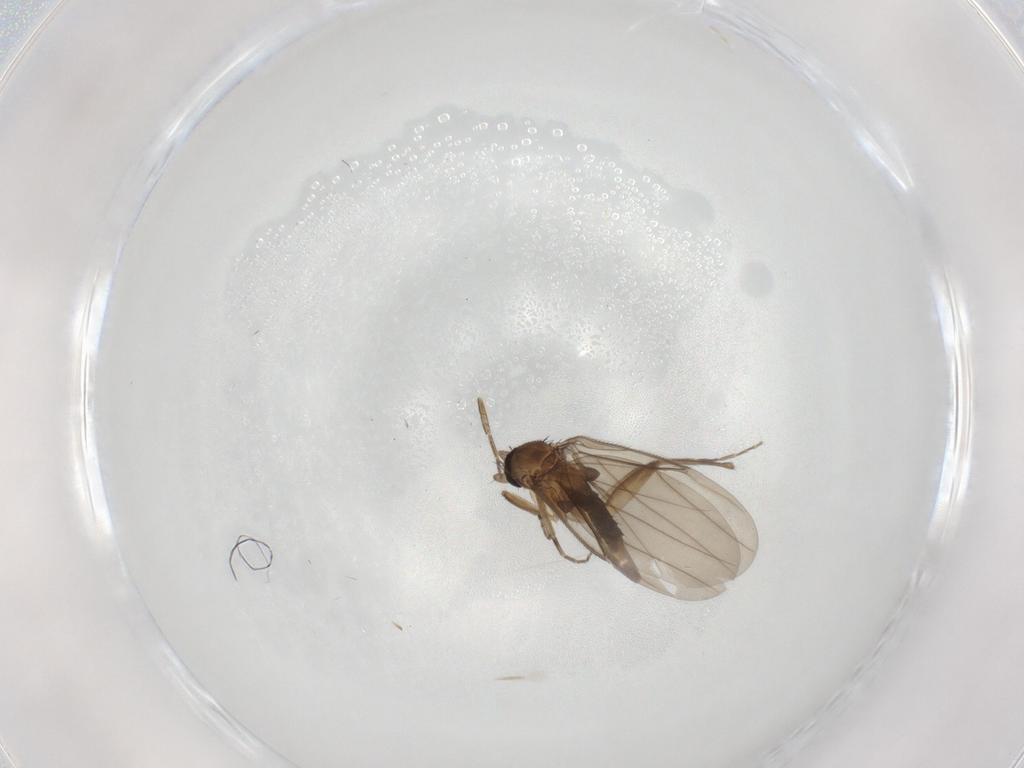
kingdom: Animalia
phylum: Arthropoda
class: Insecta
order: Diptera
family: Phoridae
